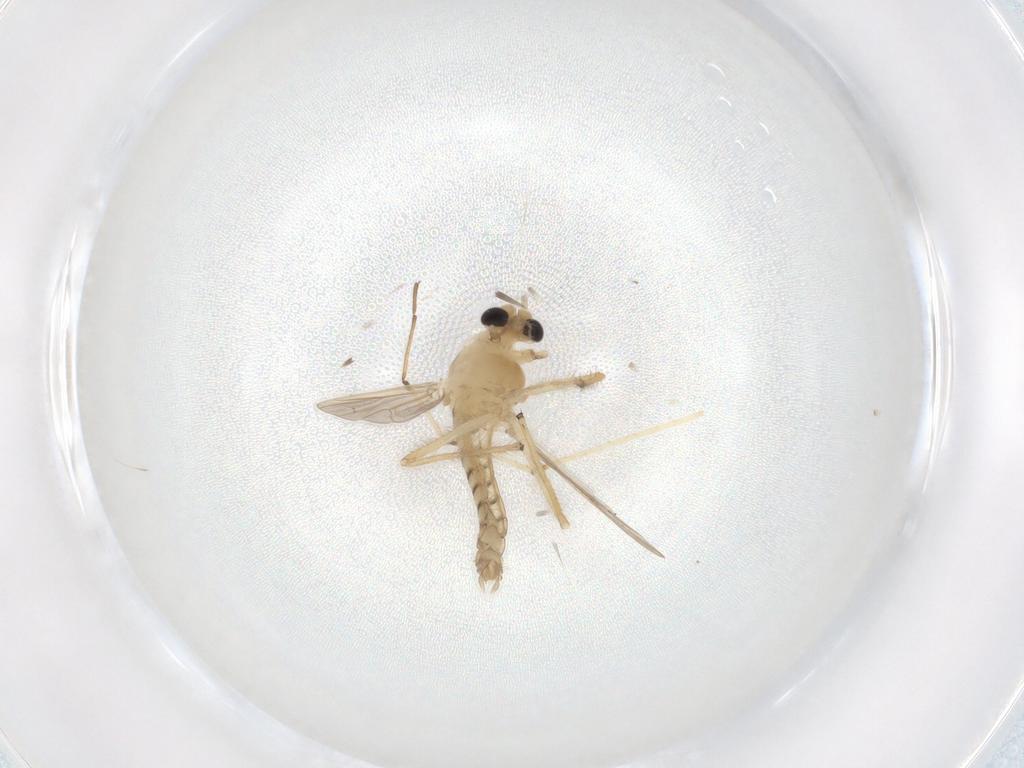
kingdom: Animalia
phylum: Arthropoda
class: Insecta
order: Diptera
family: Chironomidae
